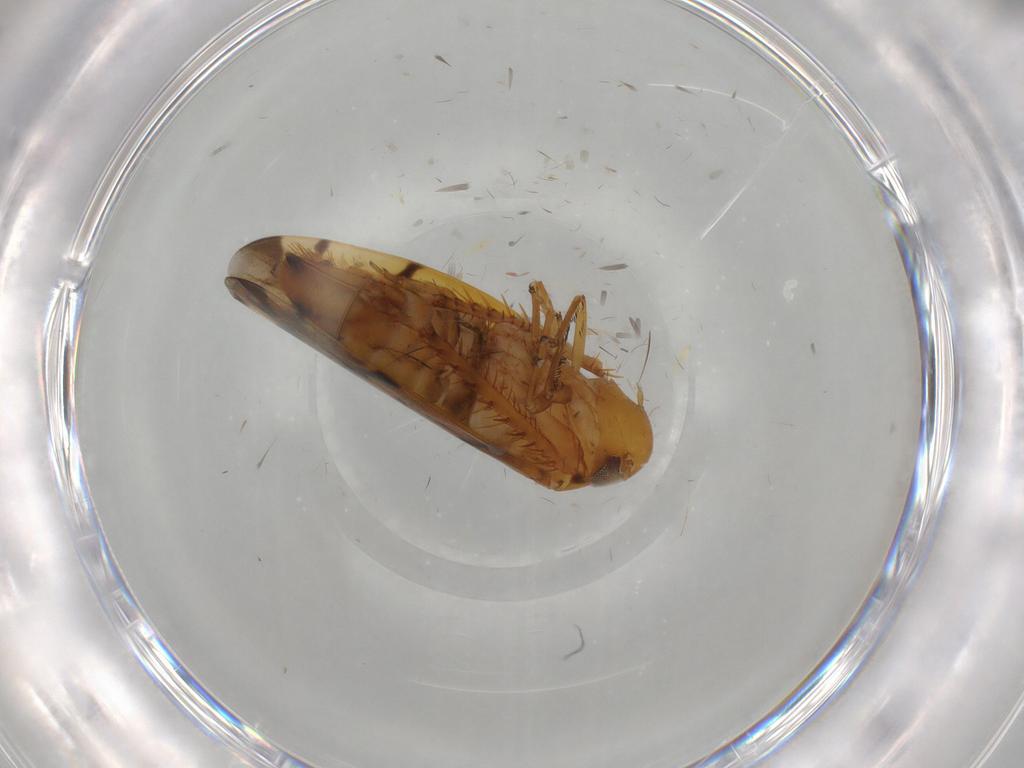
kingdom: Animalia
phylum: Arthropoda
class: Insecta
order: Hemiptera
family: Cicadellidae
